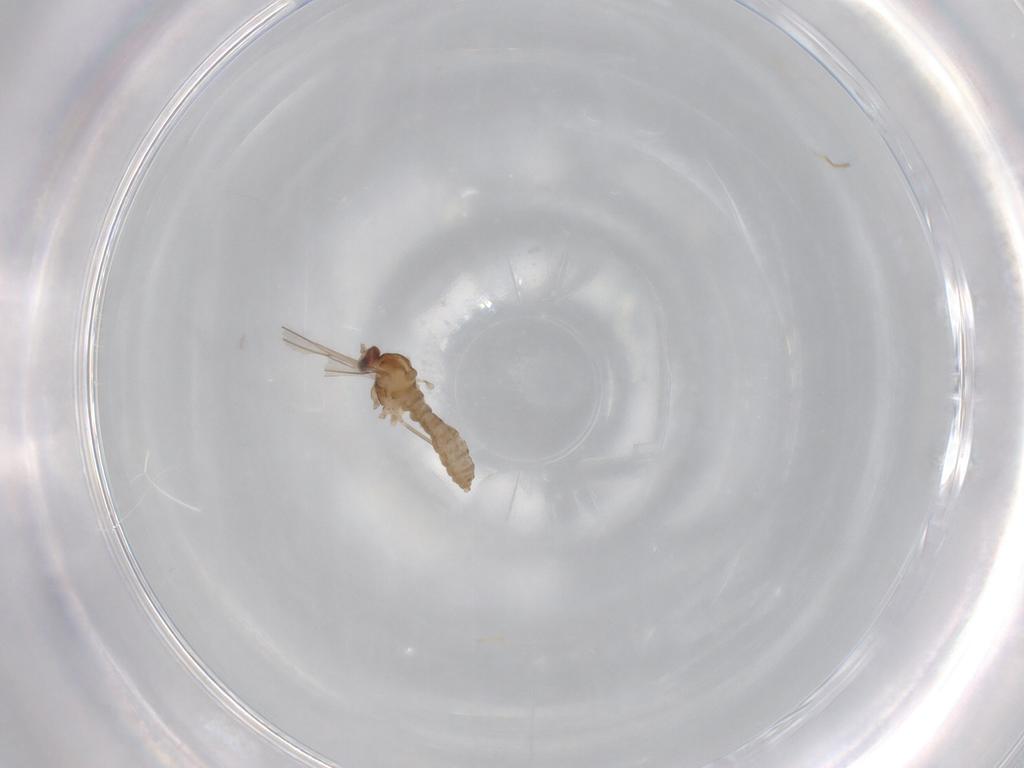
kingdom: Animalia
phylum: Arthropoda
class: Insecta
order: Diptera
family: Cecidomyiidae
